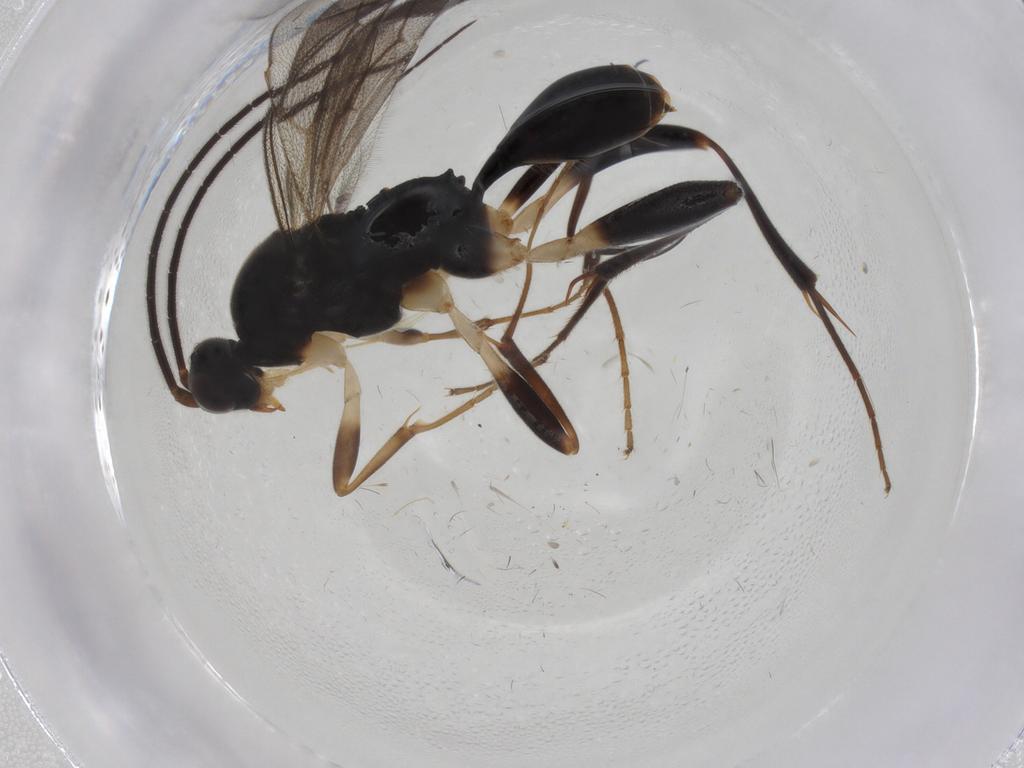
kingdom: Animalia
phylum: Arthropoda
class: Insecta
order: Hymenoptera
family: Proctotrupidae
